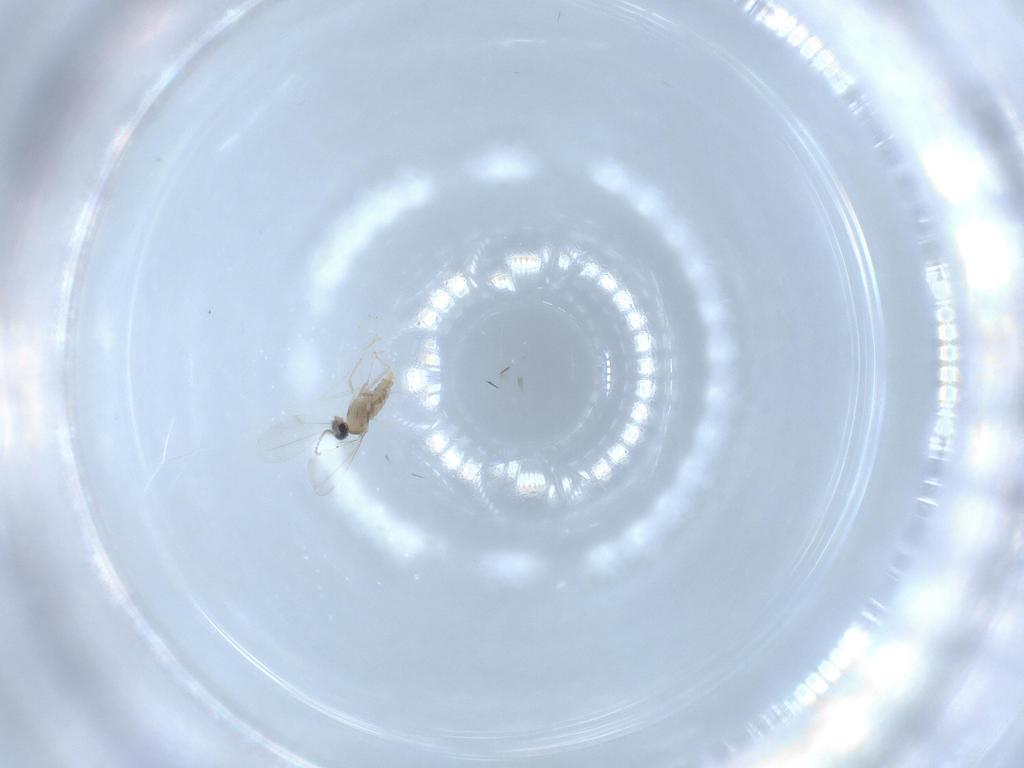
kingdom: Animalia
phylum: Arthropoda
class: Insecta
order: Diptera
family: Cecidomyiidae
